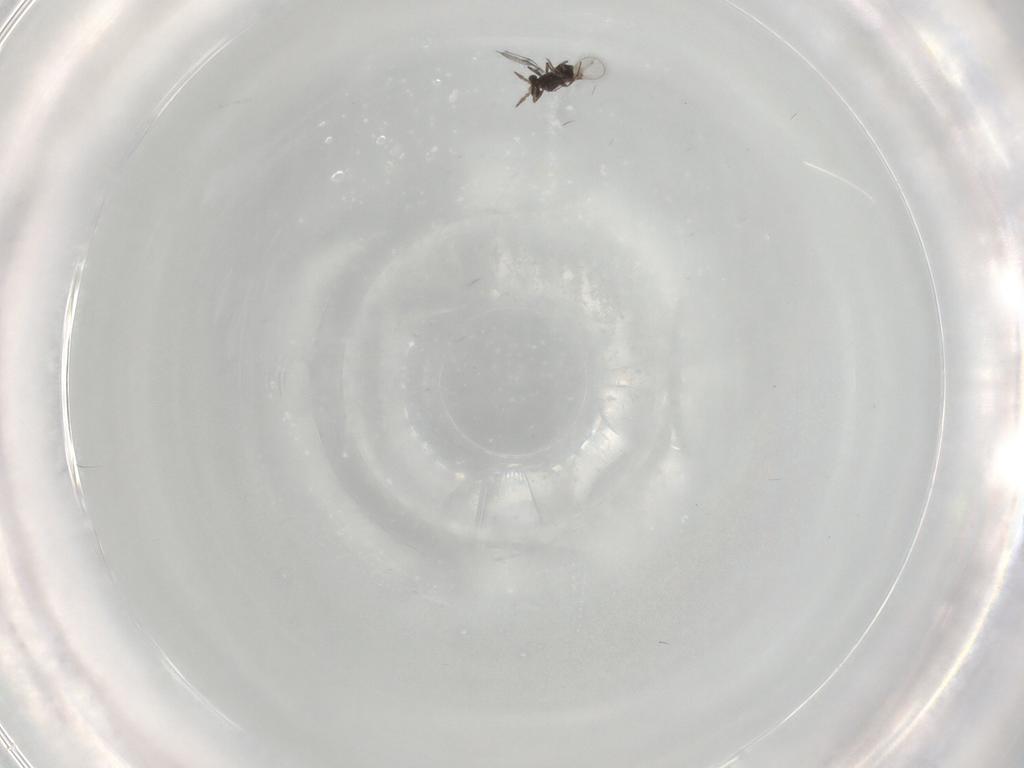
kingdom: Animalia
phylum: Arthropoda
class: Insecta
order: Hymenoptera
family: Trichogrammatidae
